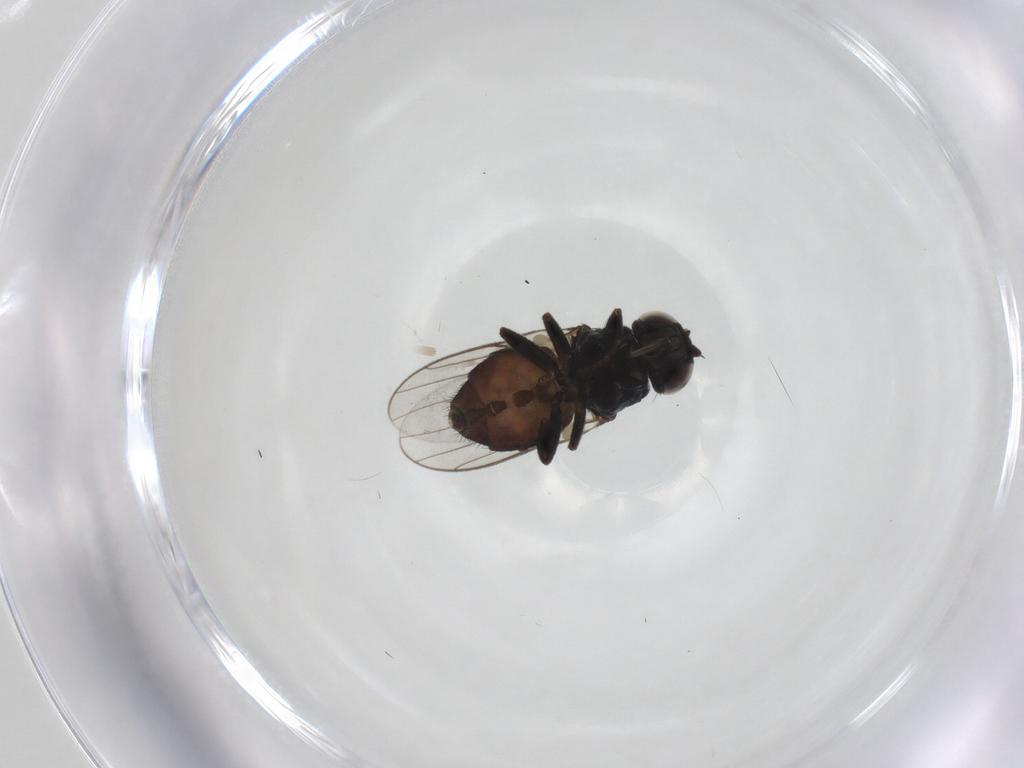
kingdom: Animalia
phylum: Arthropoda
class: Insecta
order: Diptera
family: Chloropidae
